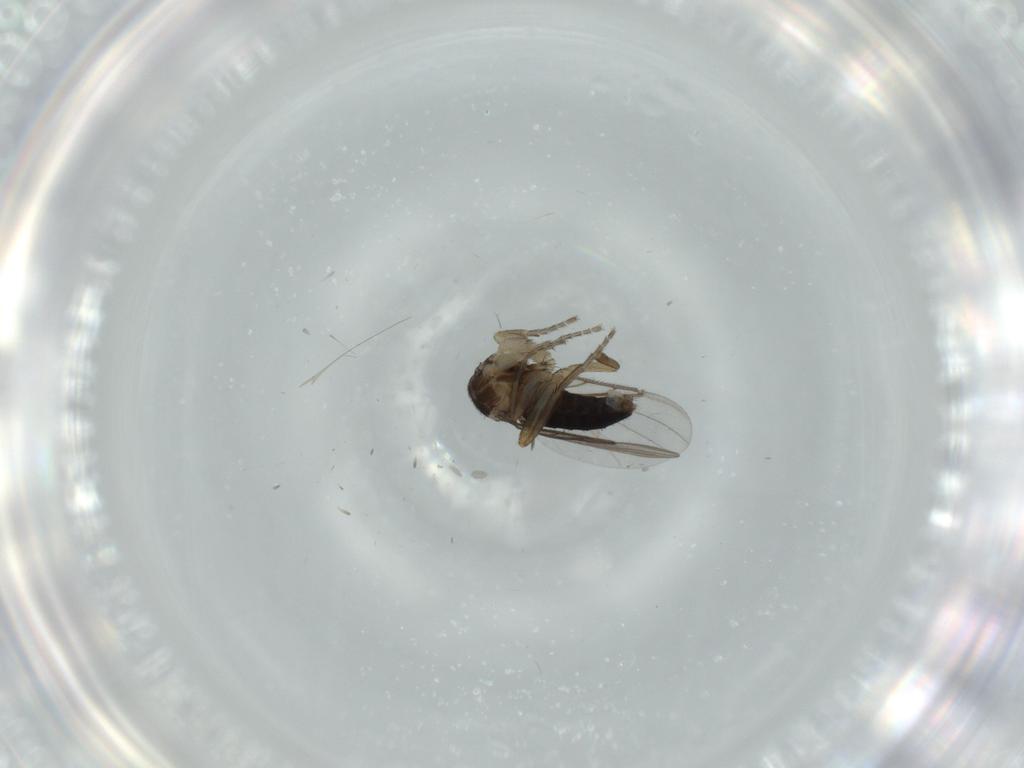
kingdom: Animalia
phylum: Arthropoda
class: Insecta
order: Diptera
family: Phoridae
